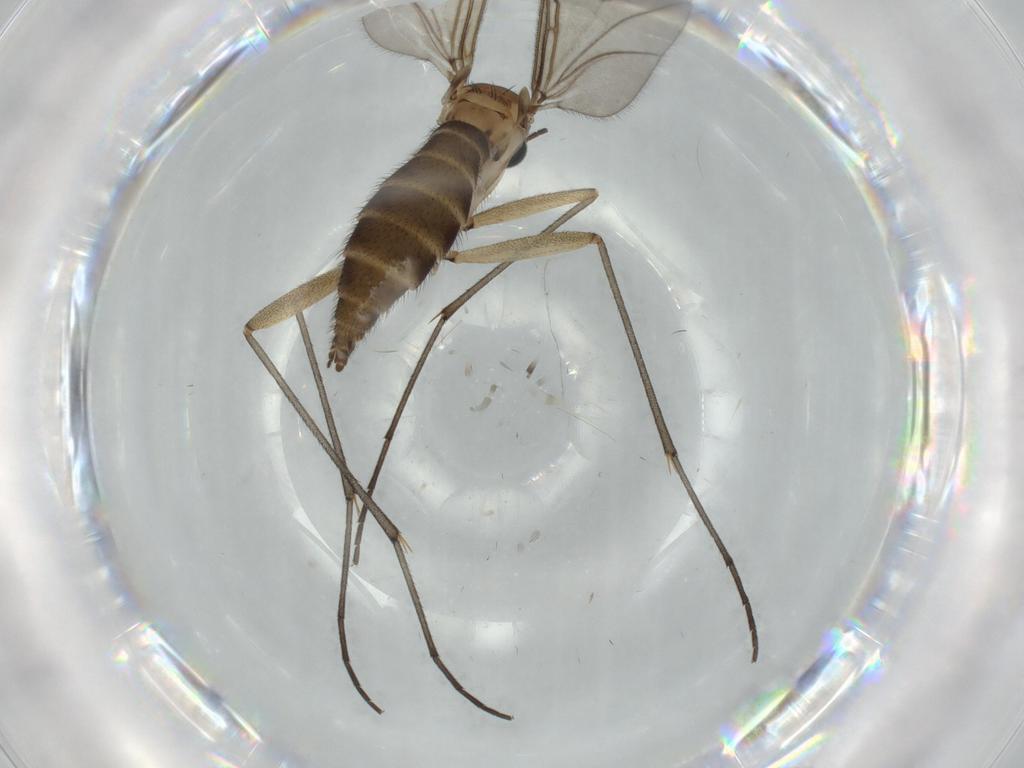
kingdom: Animalia
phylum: Arthropoda
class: Insecta
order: Diptera
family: Sciaridae
